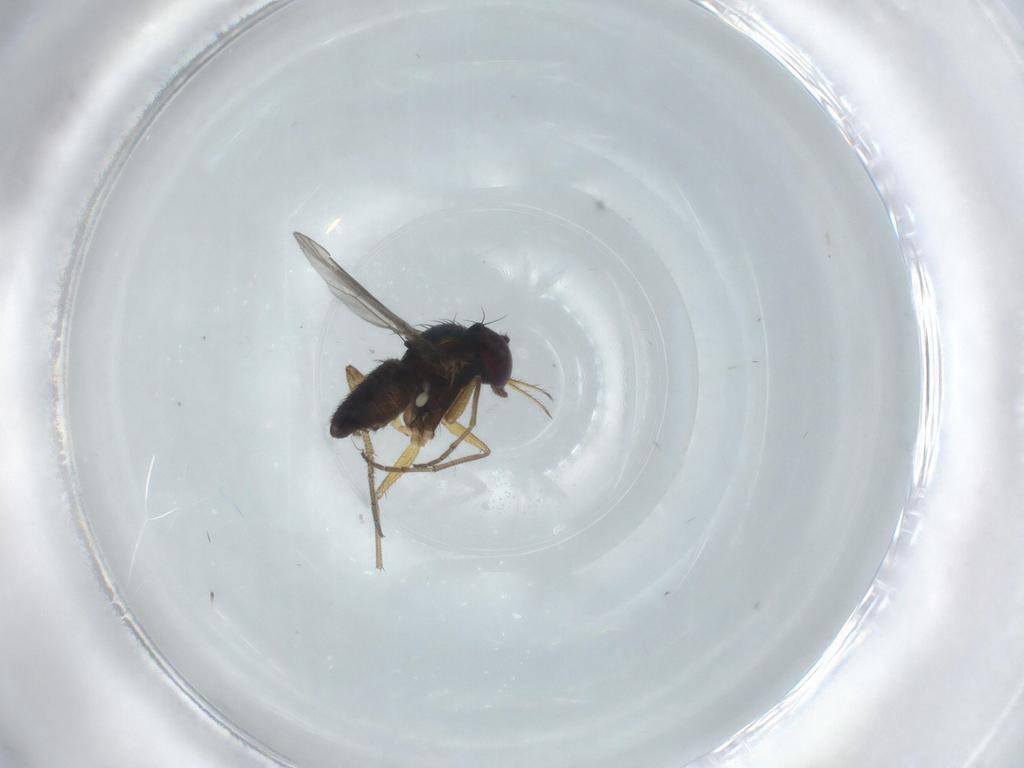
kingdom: Animalia
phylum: Arthropoda
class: Insecta
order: Diptera
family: Dolichopodidae
